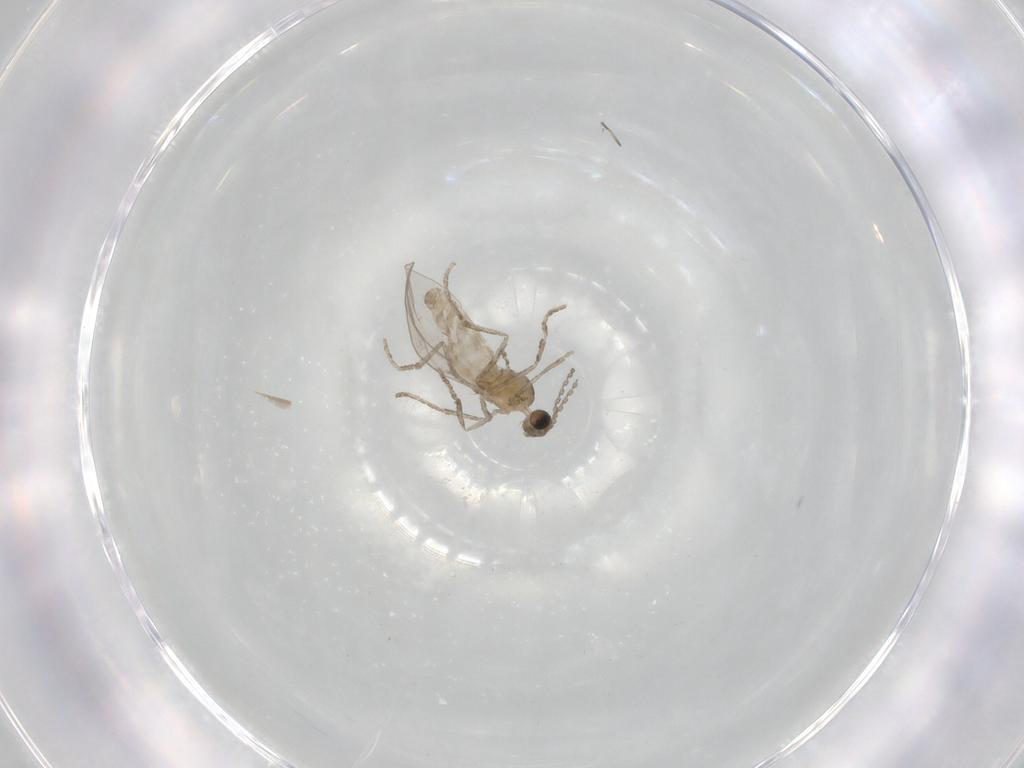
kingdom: Animalia
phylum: Arthropoda
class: Insecta
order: Diptera
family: Cecidomyiidae
